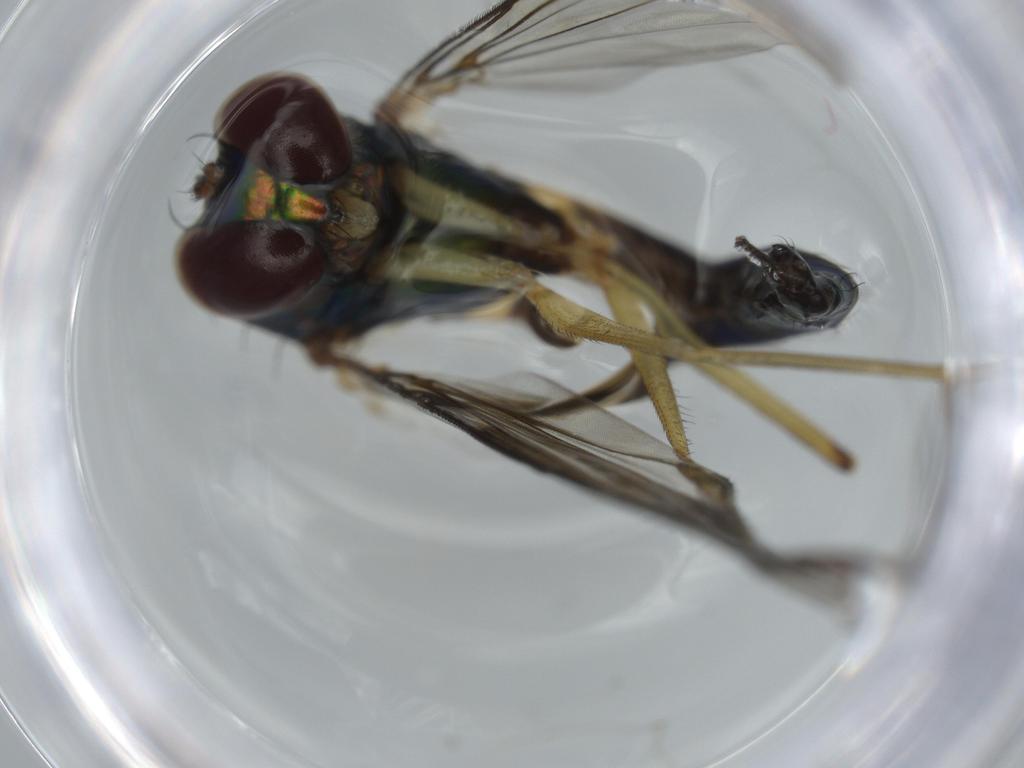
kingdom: Animalia
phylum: Arthropoda
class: Insecta
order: Diptera
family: Dolichopodidae
